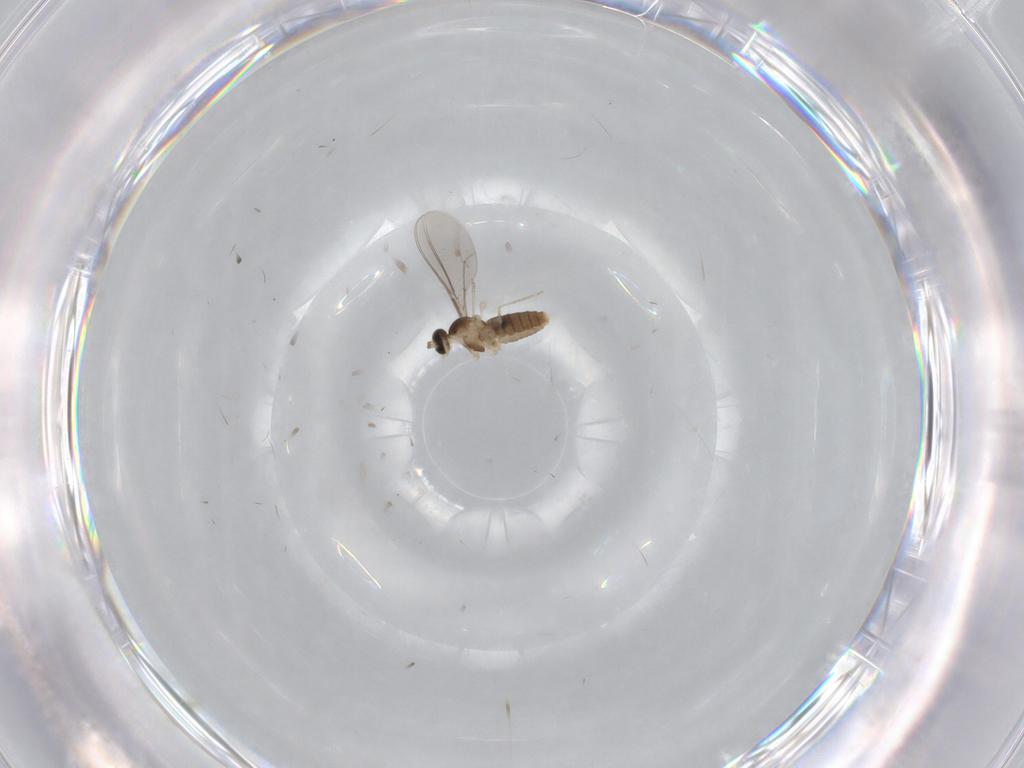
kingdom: Animalia
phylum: Arthropoda
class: Insecta
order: Diptera
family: Cecidomyiidae
